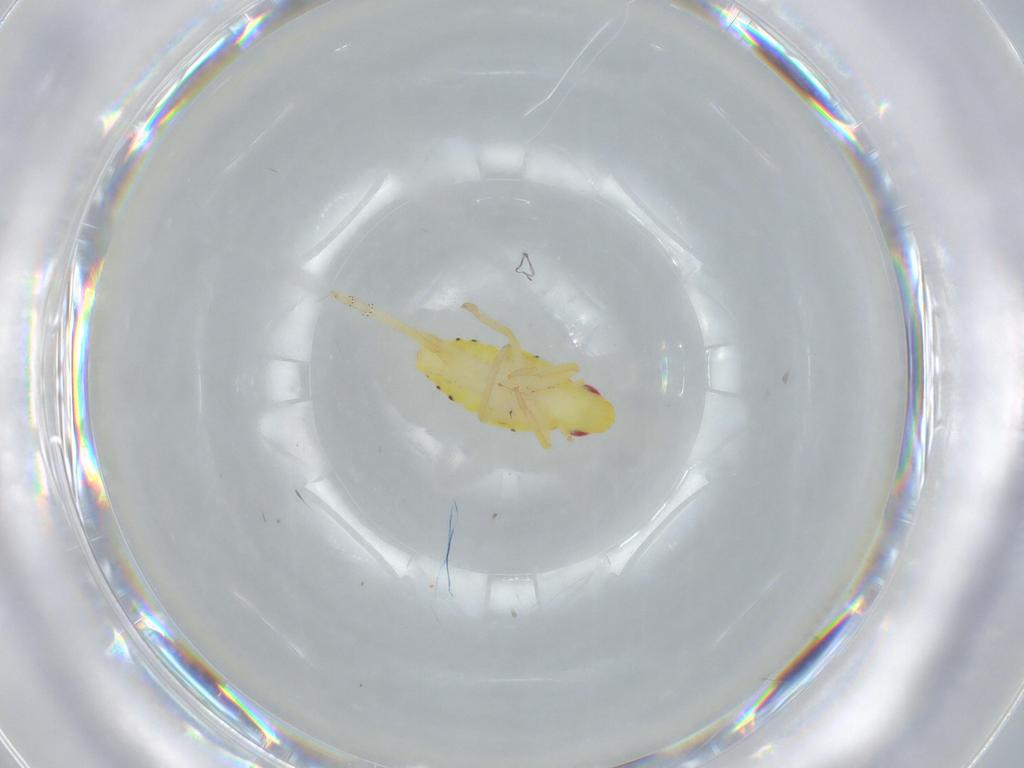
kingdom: Animalia
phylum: Arthropoda
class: Insecta
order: Hemiptera
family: Tropiduchidae
